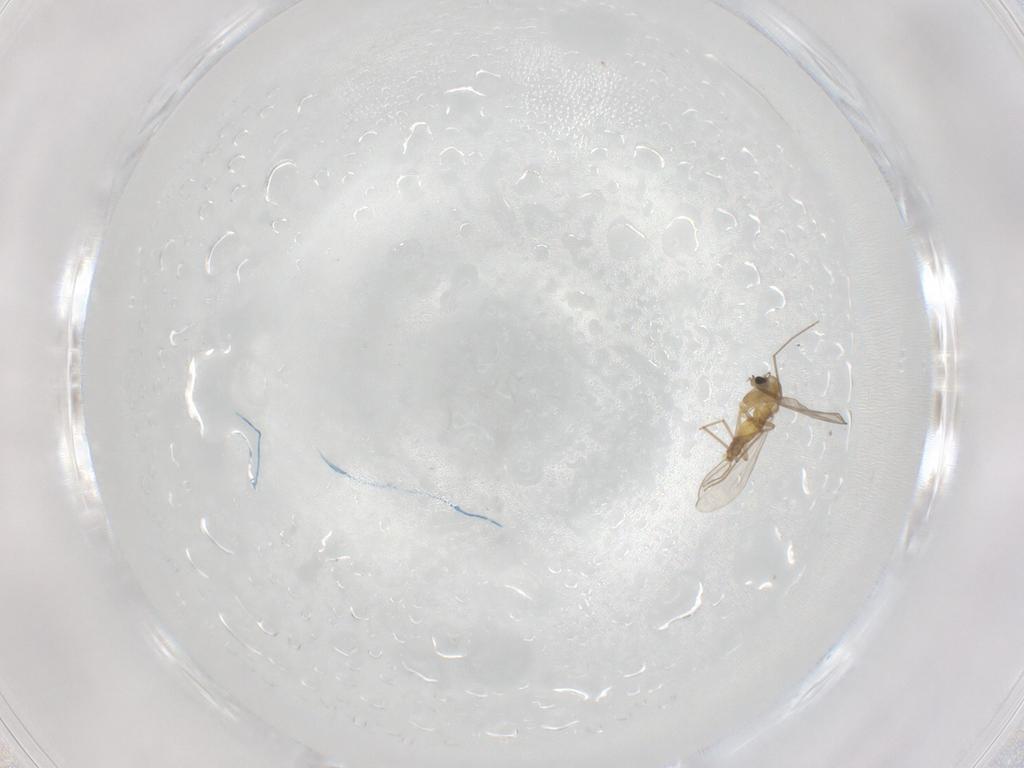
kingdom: Animalia
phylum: Arthropoda
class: Insecta
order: Diptera
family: Chironomidae
